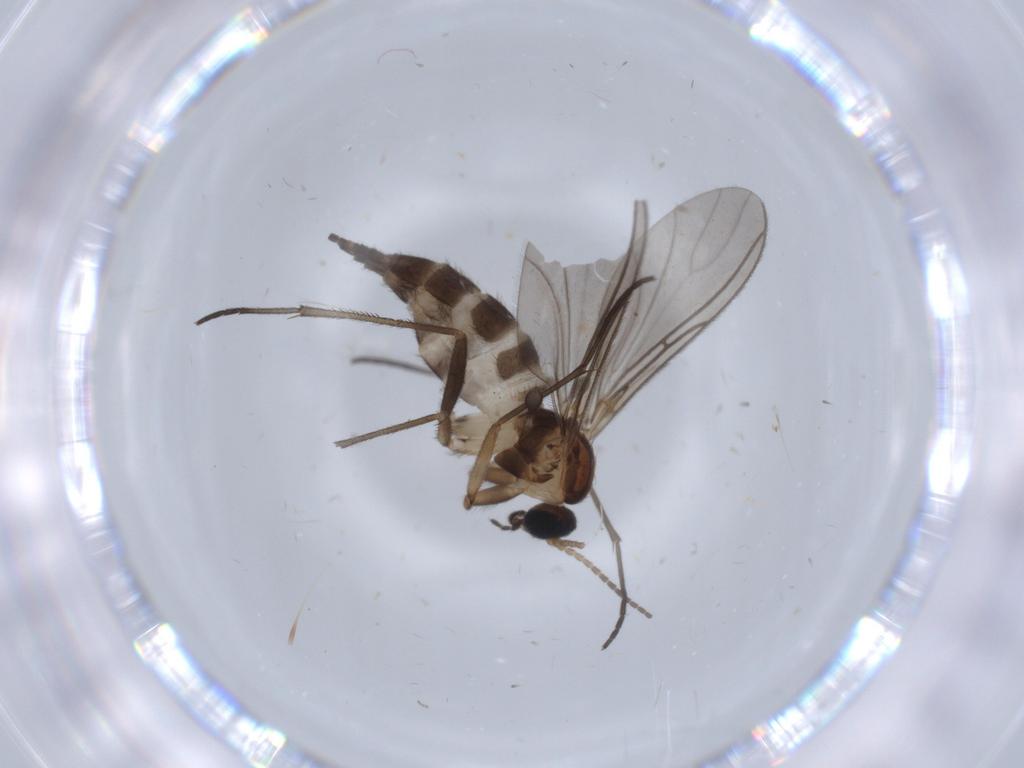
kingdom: Animalia
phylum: Arthropoda
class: Insecta
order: Diptera
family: Sciaridae
